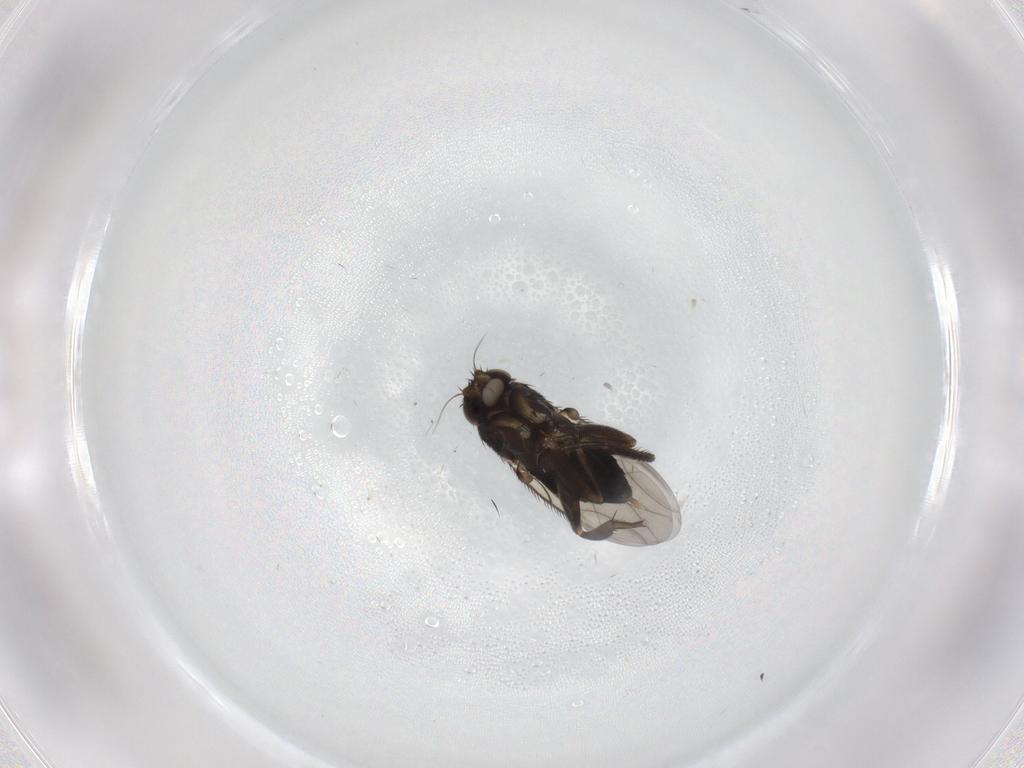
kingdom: Animalia
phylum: Arthropoda
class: Insecta
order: Diptera
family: Phoridae
